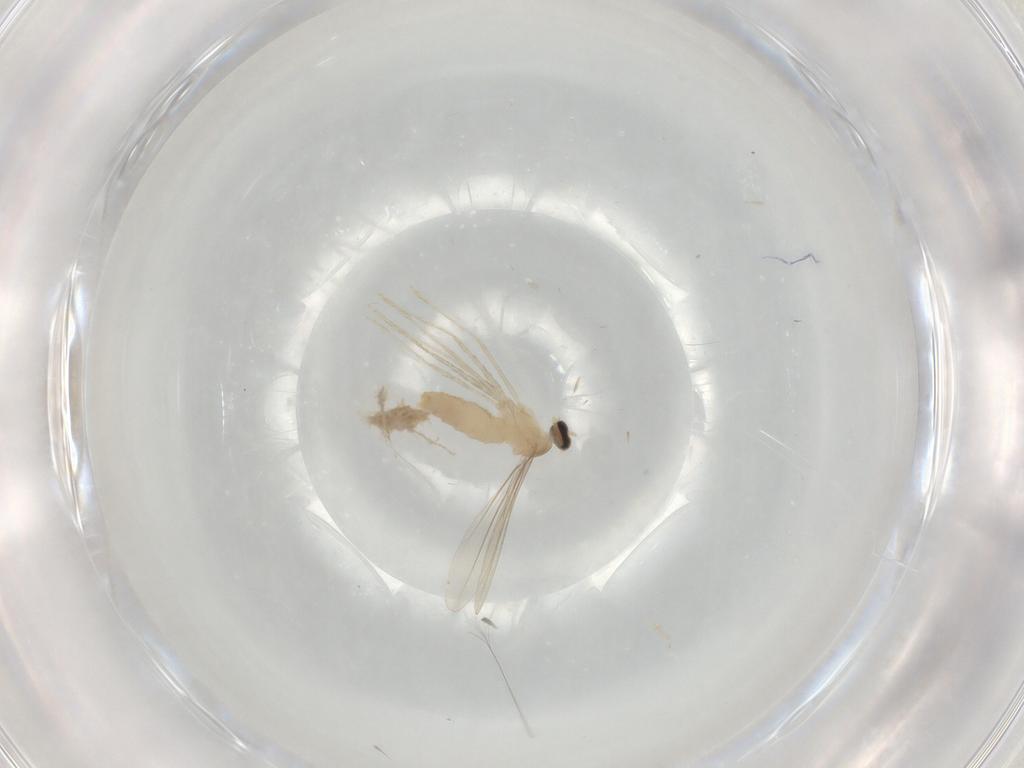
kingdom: Animalia
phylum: Arthropoda
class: Insecta
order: Diptera
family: Cecidomyiidae
